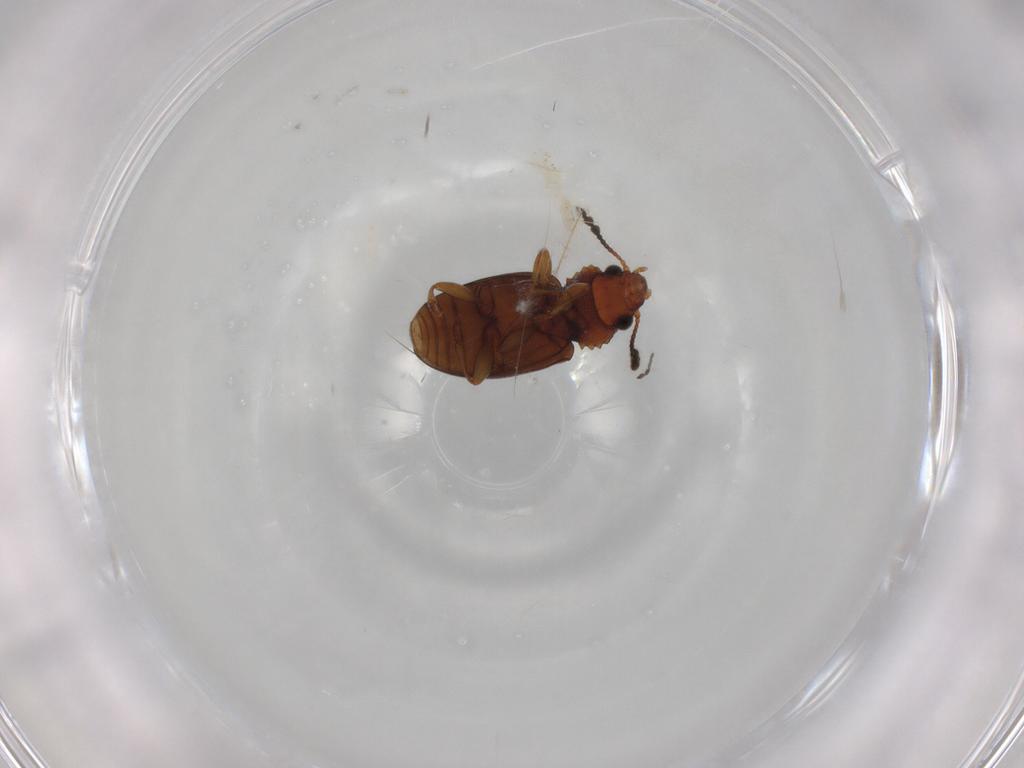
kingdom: Animalia
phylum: Arthropoda
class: Insecta
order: Coleoptera
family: Salpingidae
